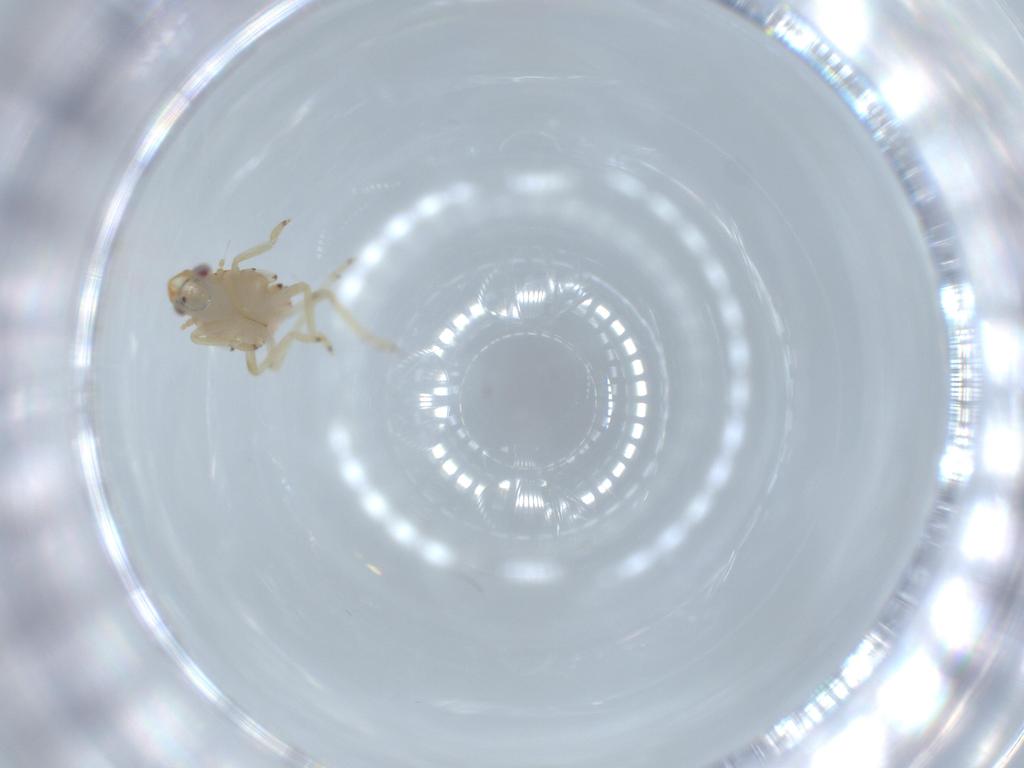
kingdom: Animalia
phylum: Arthropoda
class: Insecta
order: Hemiptera
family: Tropiduchidae
